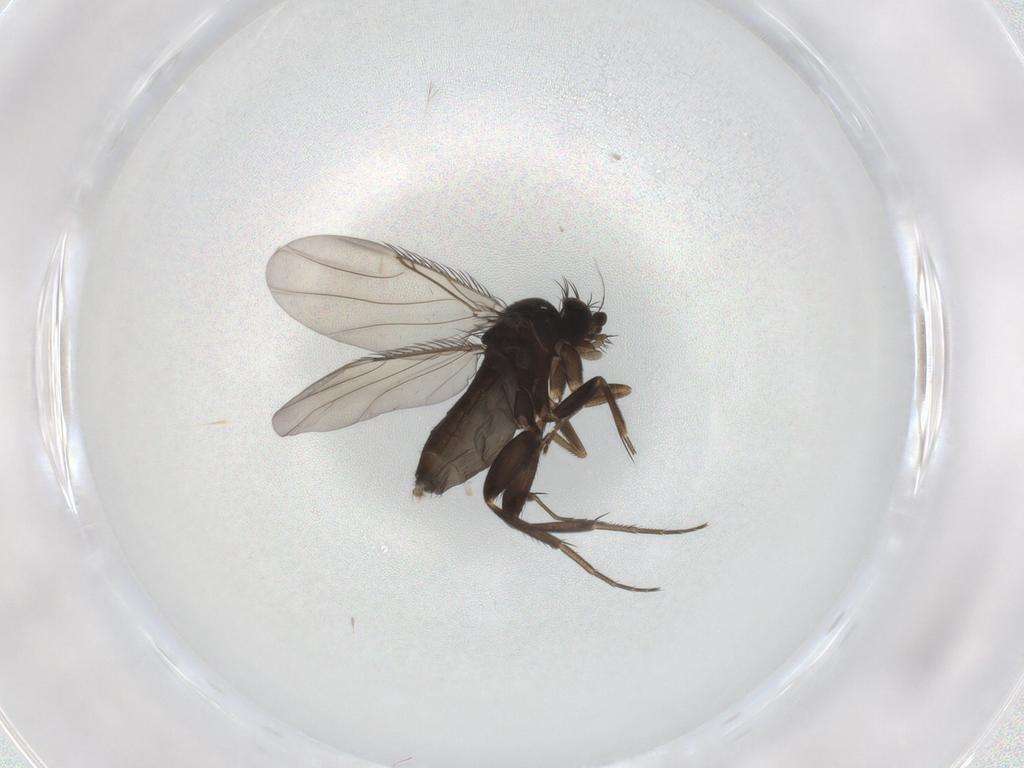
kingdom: Animalia
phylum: Arthropoda
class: Insecta
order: Diptera
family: Phoridae
